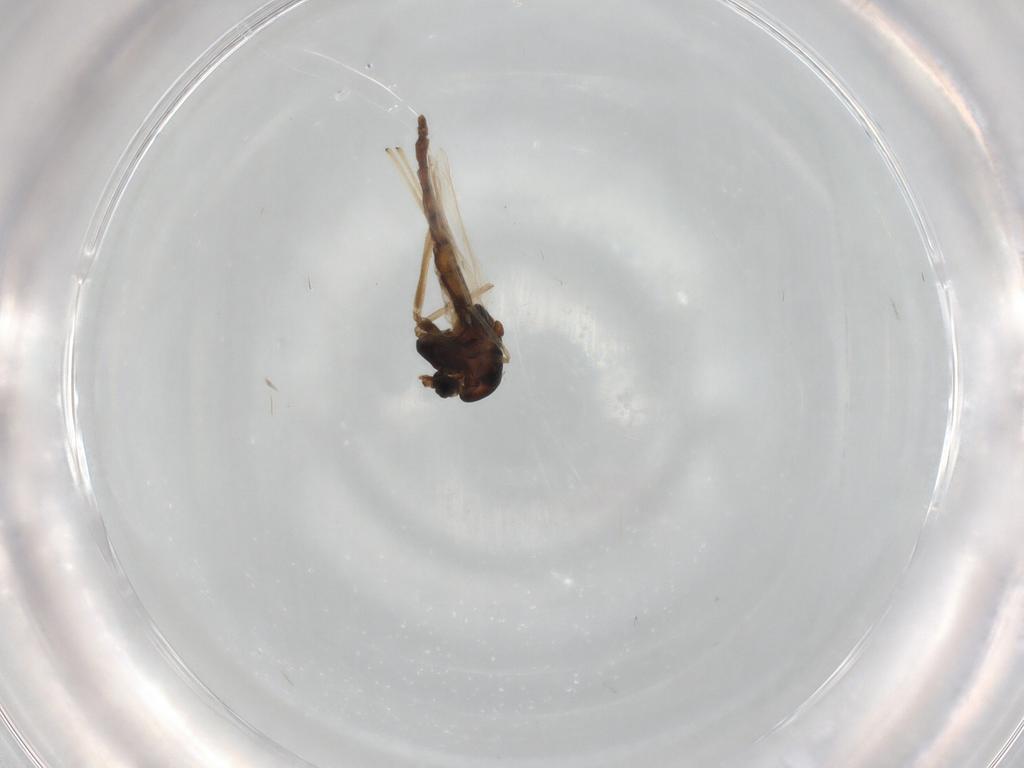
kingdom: Animalia
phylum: Arthropoda
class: Insecta
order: Diptera
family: Chironomidae
